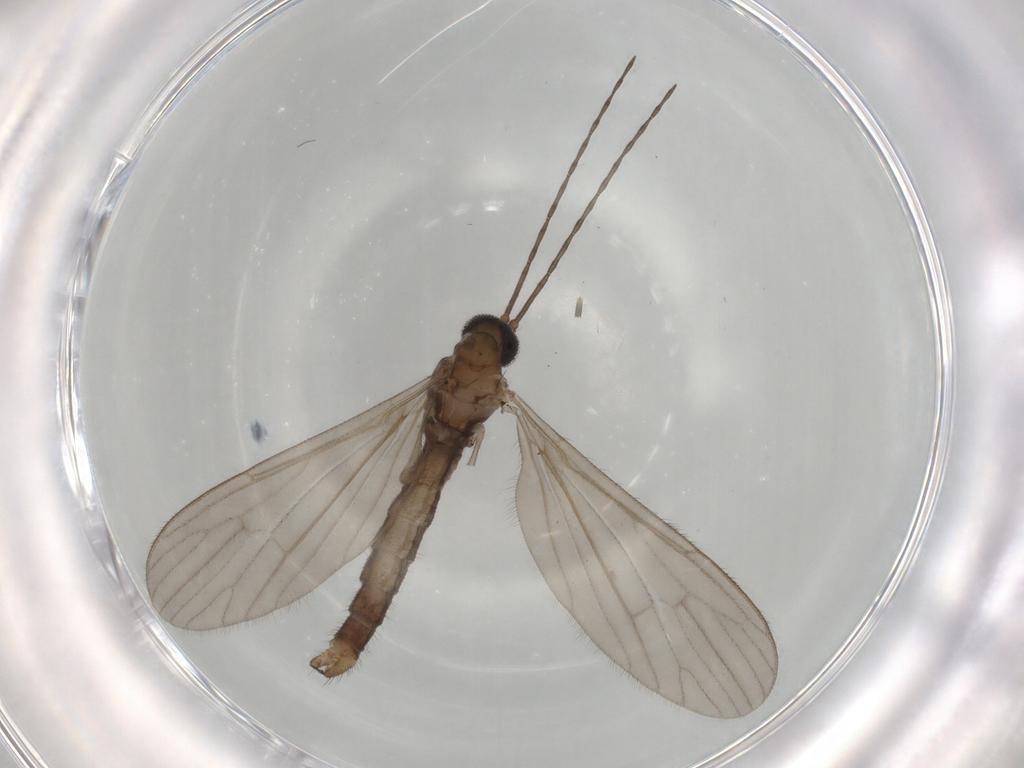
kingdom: Animalia
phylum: Arthropoda
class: Insecta
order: Diptera
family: Dolichopodidae
